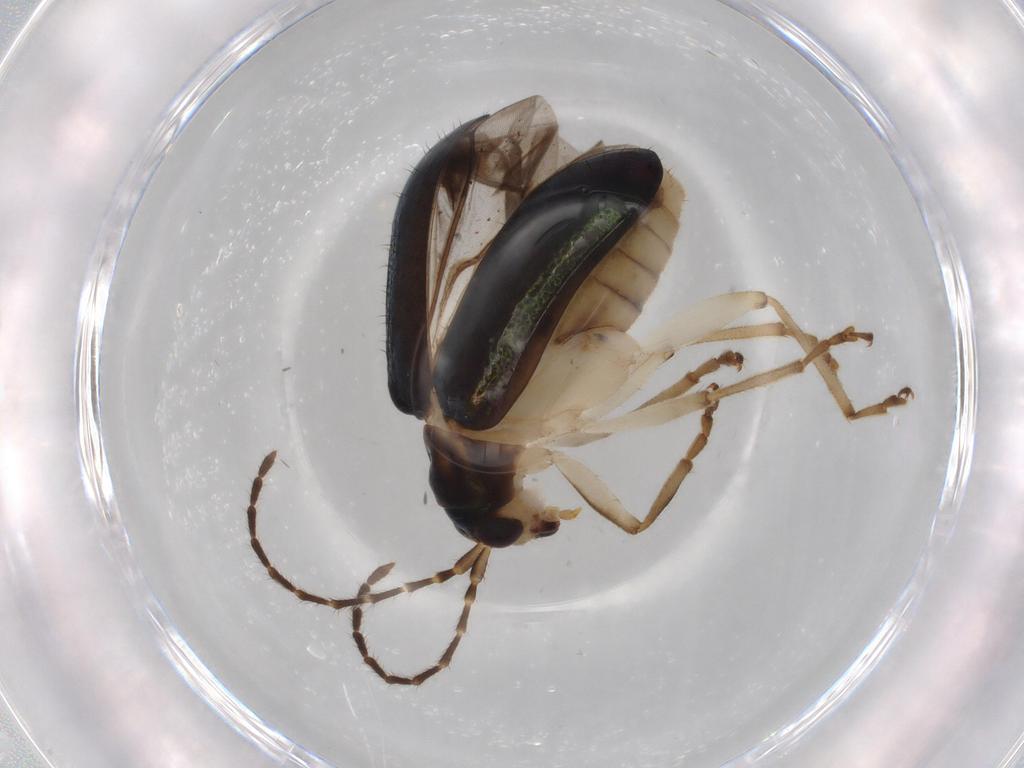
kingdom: Animalia
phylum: Arthropoda
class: Insecta
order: Coleoptera
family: Chrysomelidae
